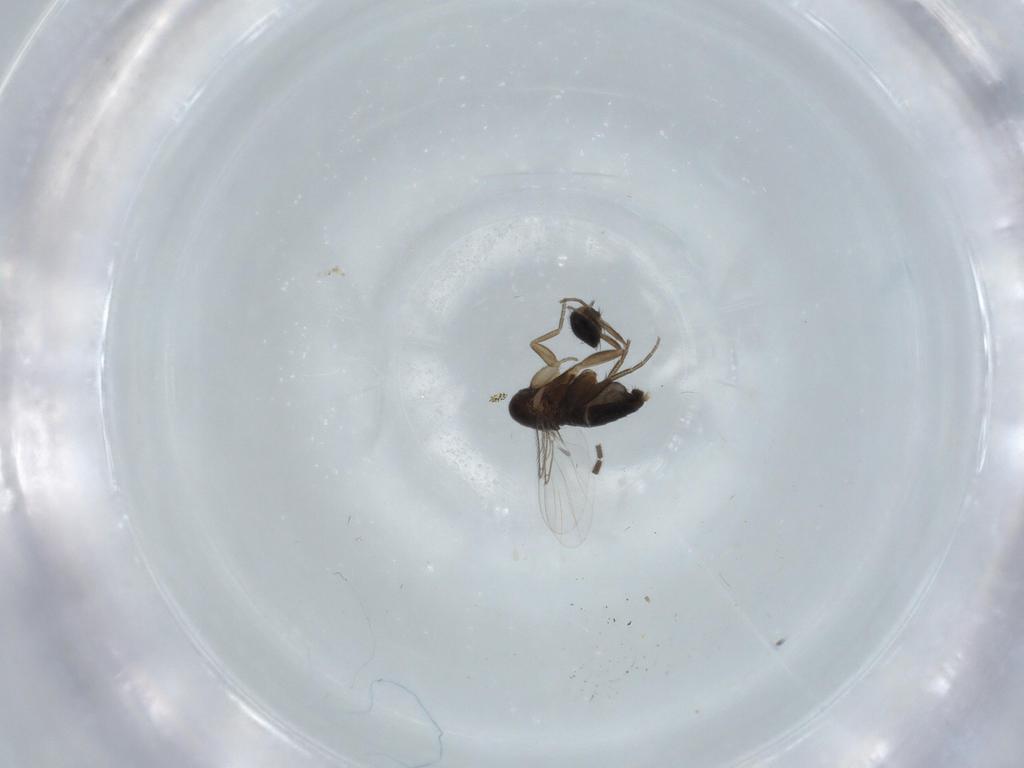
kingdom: Animalia
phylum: Arthropoda
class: Insecta
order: Diptera
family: Phoridae
